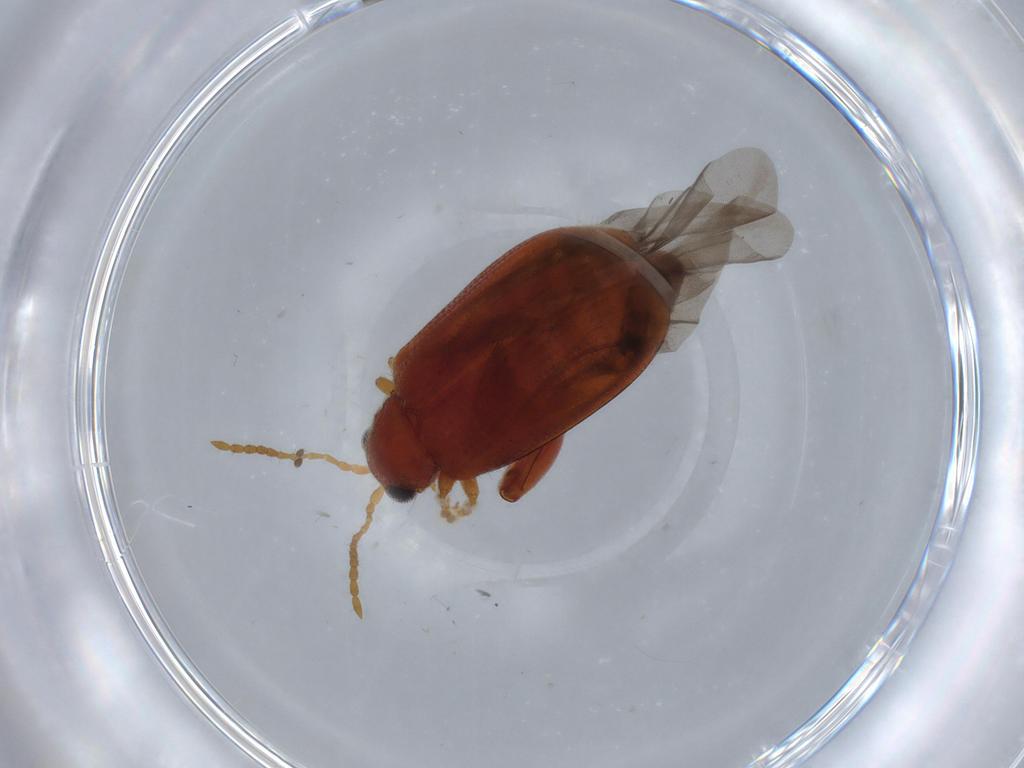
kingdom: Animalia
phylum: Arthropoda
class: Insecta
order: Coleoptera
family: Chrysomelidae
